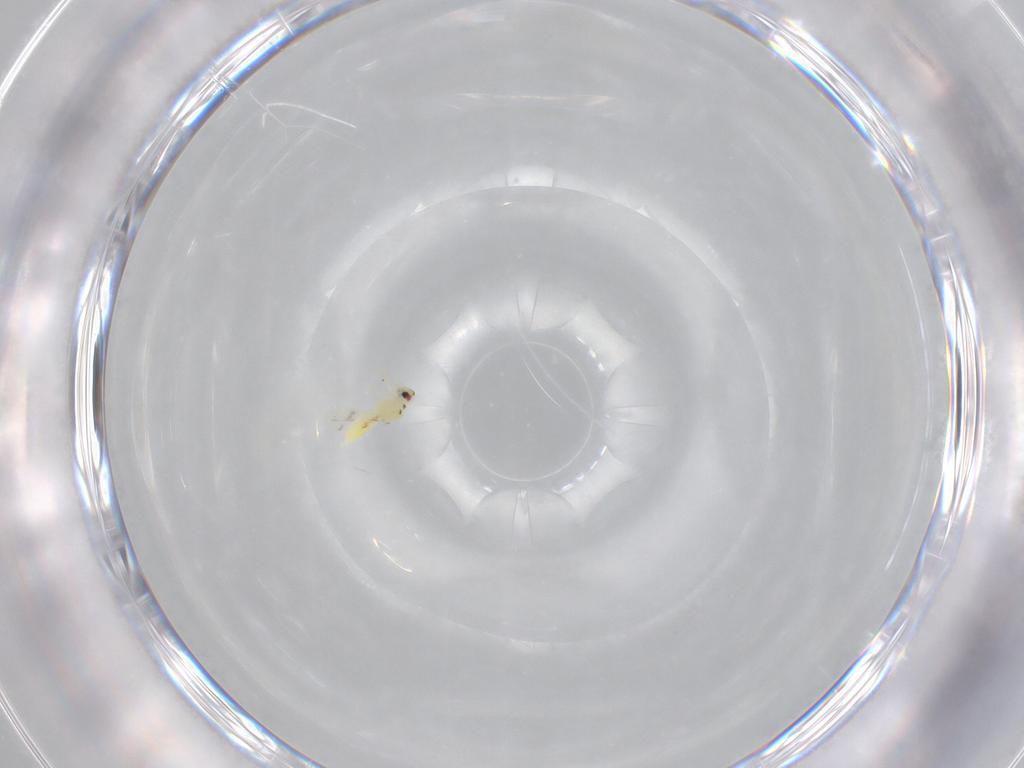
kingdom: Animalia
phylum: Arthropoda
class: Insecta
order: Hemiptera
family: Aleyrodidae
